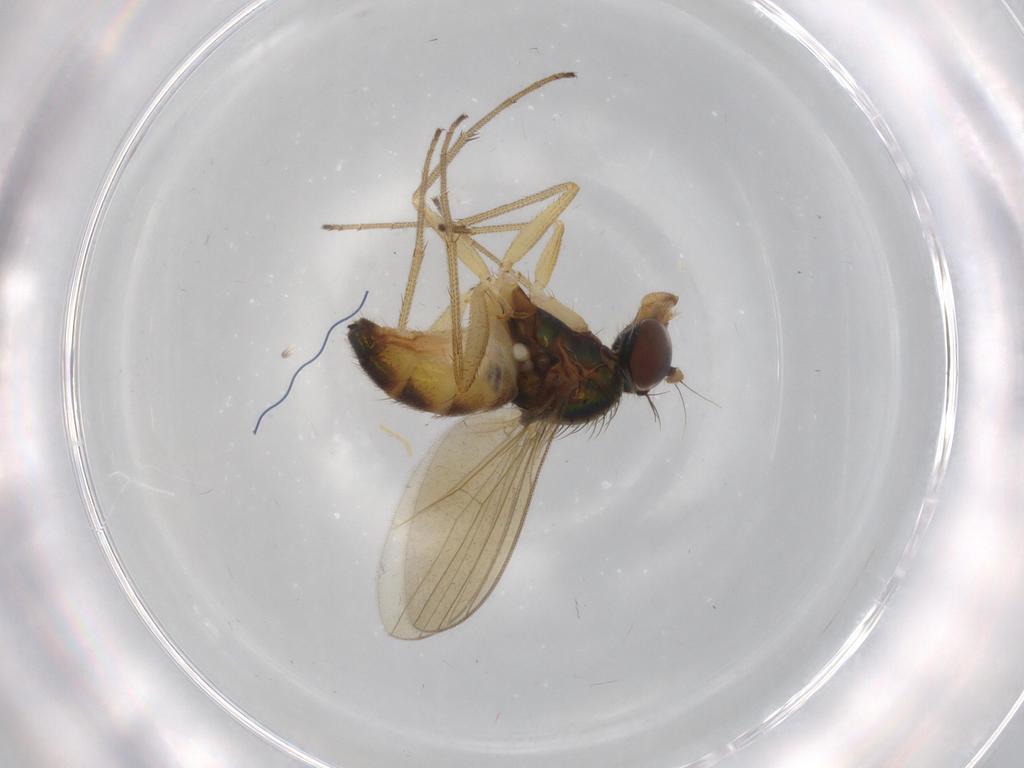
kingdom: Animalia
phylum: Arthropoda
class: Insecta
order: Diptera
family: Dolichopodidae
